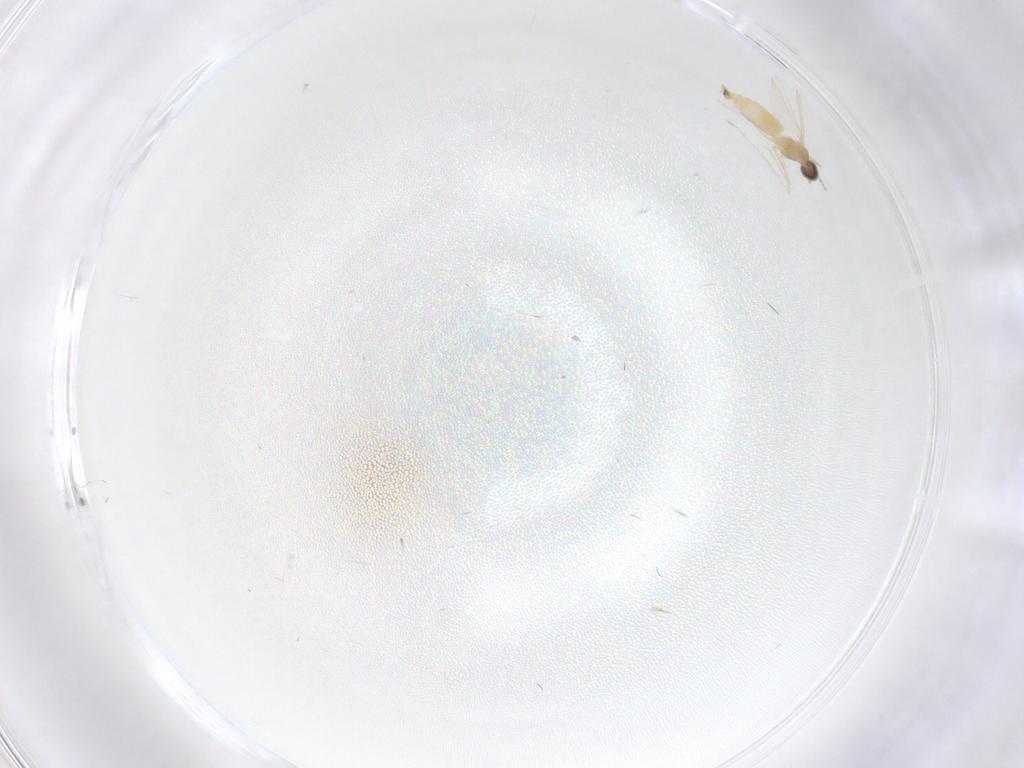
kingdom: Animalia
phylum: Arthropoda
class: Insecta
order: Diptera
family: Cecidomyiidae
